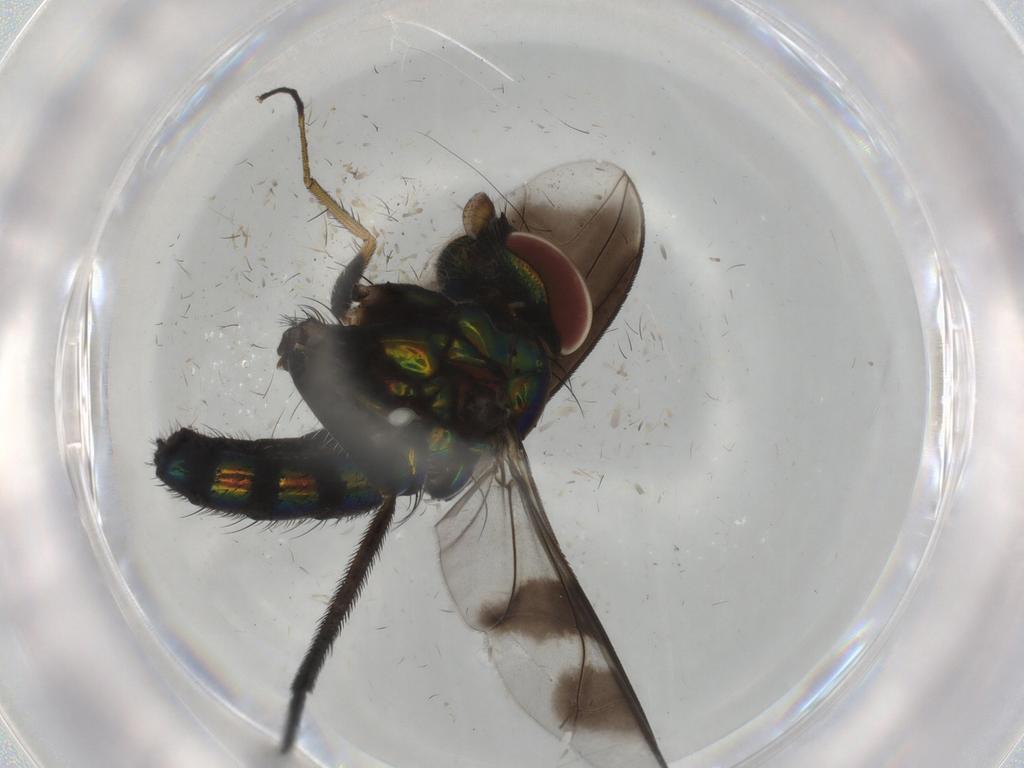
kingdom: Animalia
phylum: Arthropoda
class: Insecta
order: Diptera
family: Dolichopodidae
